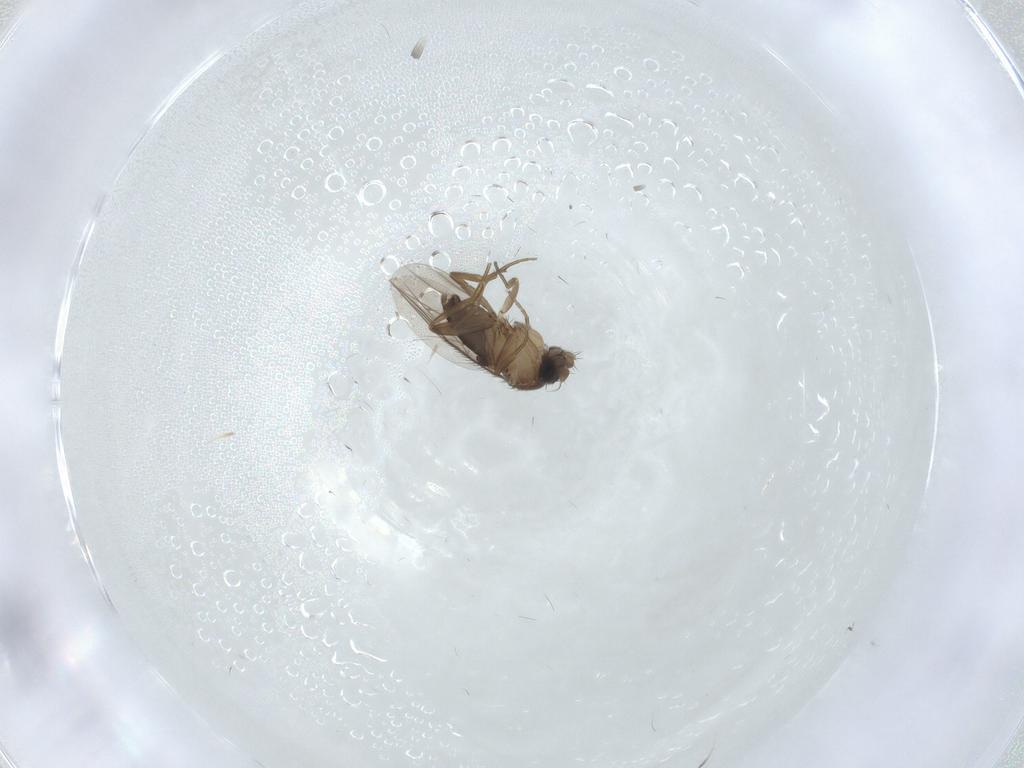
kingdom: Animalia
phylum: Arthropoda
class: Insecta
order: Diptera
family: Phoridae
